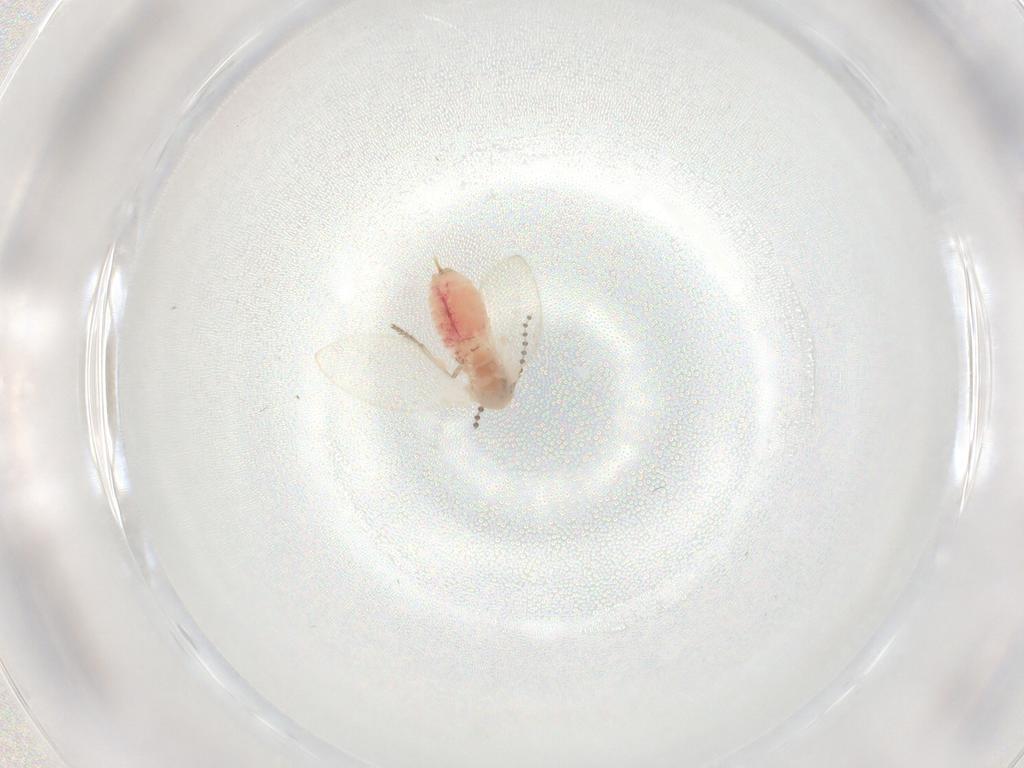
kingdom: Animalia
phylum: Arthropoda
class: Insecta
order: Diptera
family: Psychodidae
